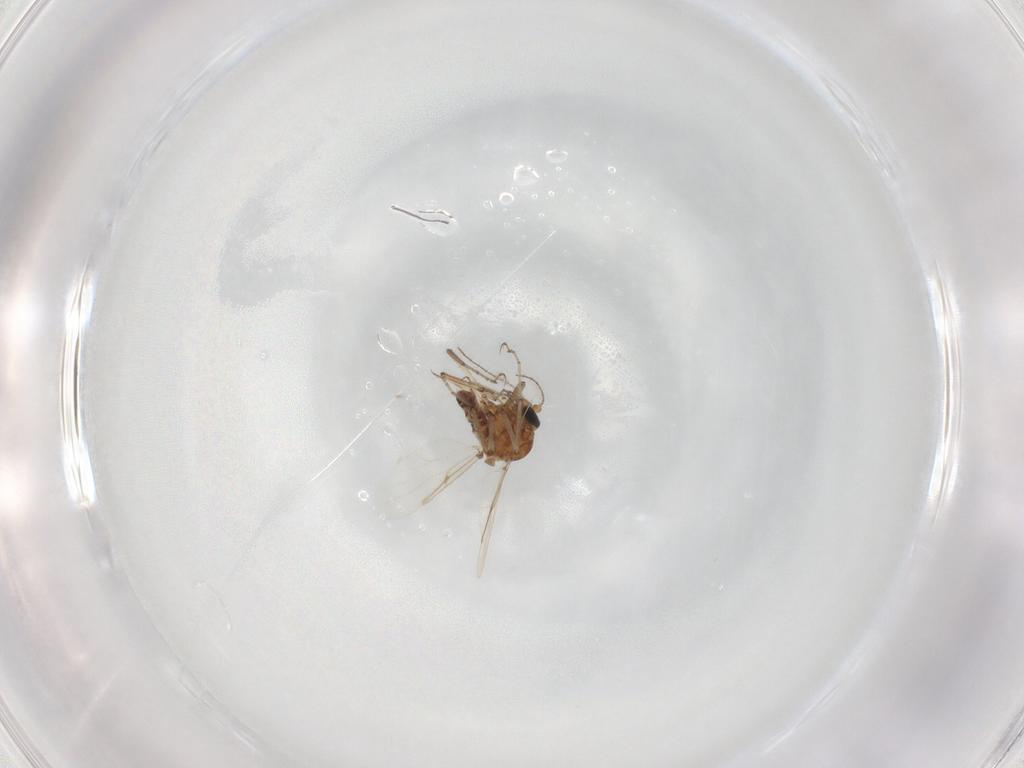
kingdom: Animalia
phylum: Arthropoda
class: Insecta
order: Diptera
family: Ceratopogonidae
